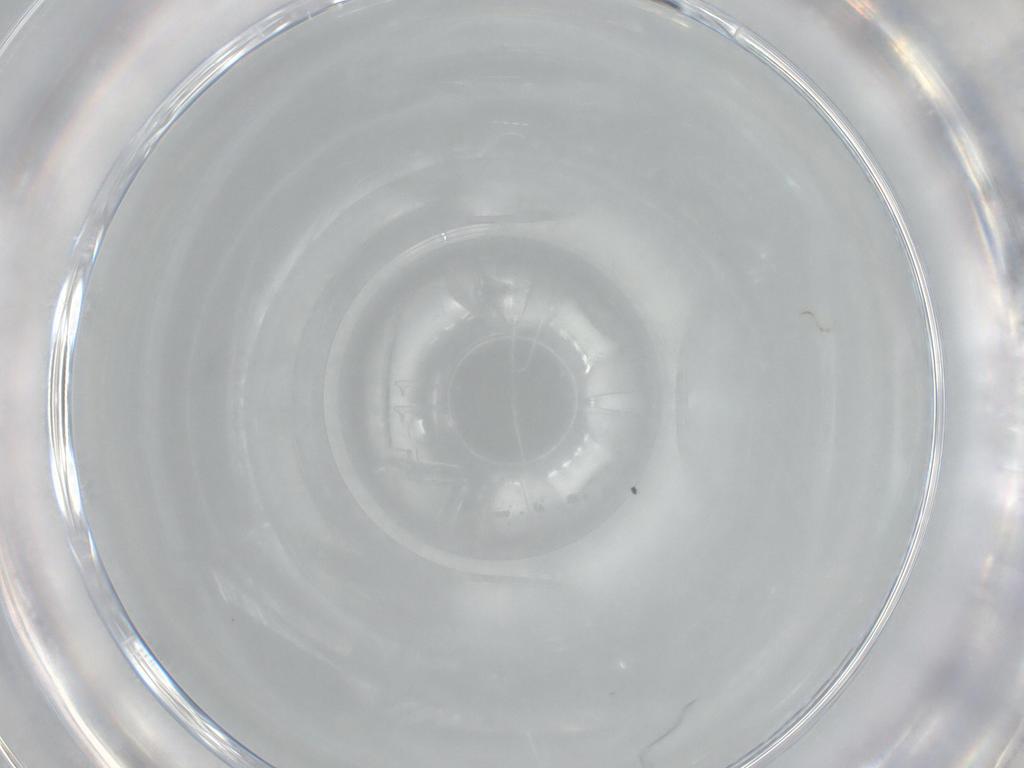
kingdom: Animalia
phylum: Arthropoda
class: Insecta
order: Diptera
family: Cecidomyiidae
